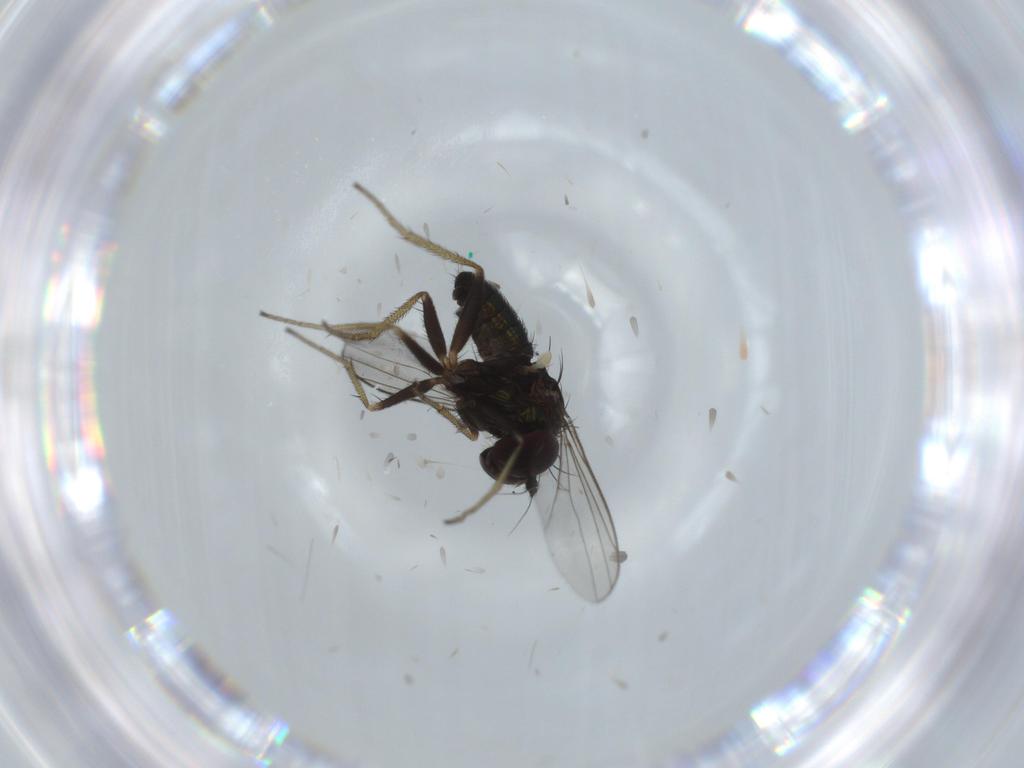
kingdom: Animalia
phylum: Arthropoda
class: Insecta
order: Diptera
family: Dolichopodidae
